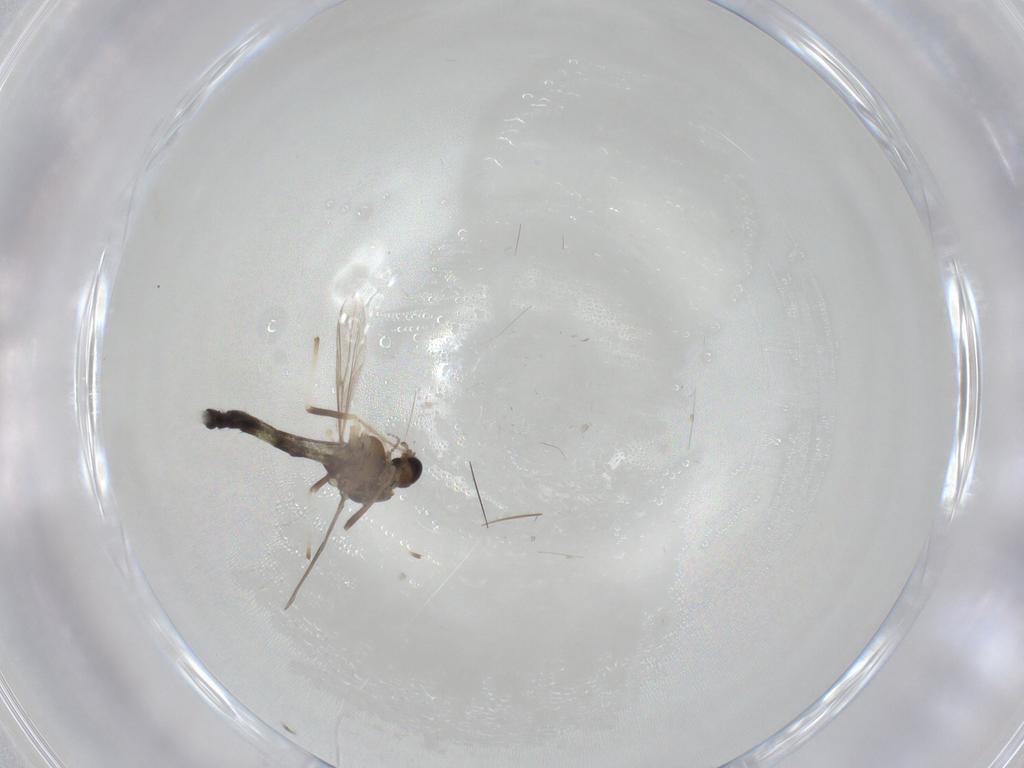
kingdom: Animalia
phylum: Arthropoda
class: Insecta
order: Diptera
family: Chironomidae
